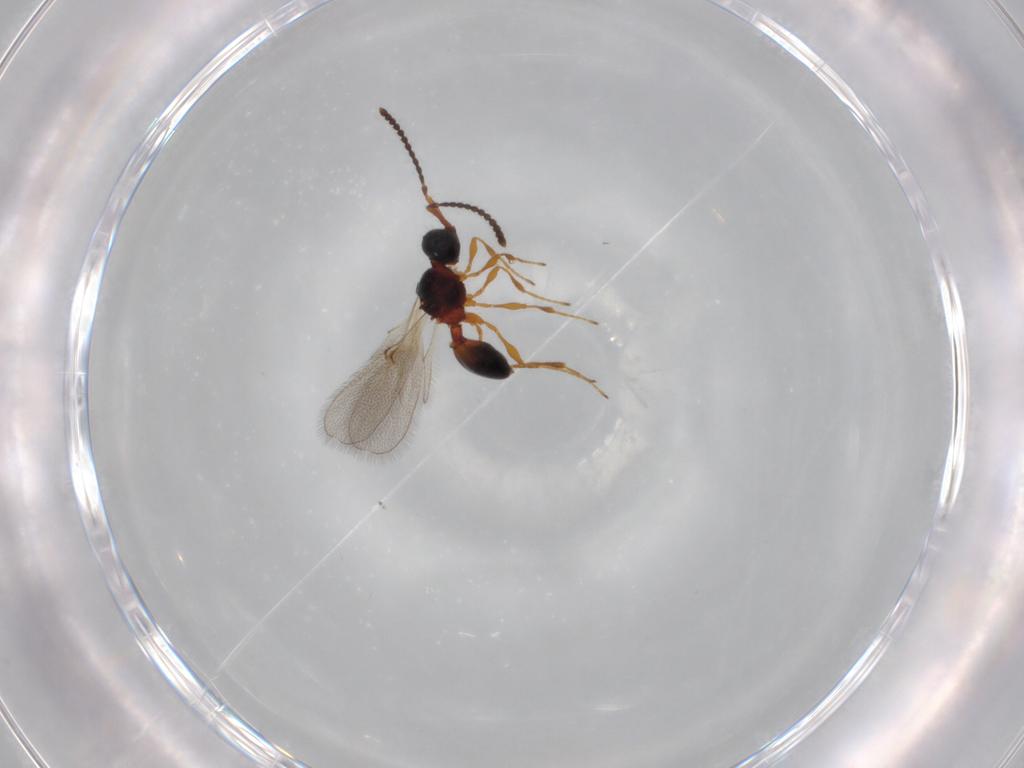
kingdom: Animalia
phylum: Arthropoda
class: Insecta
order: Hymenoptera
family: Diapriidae
